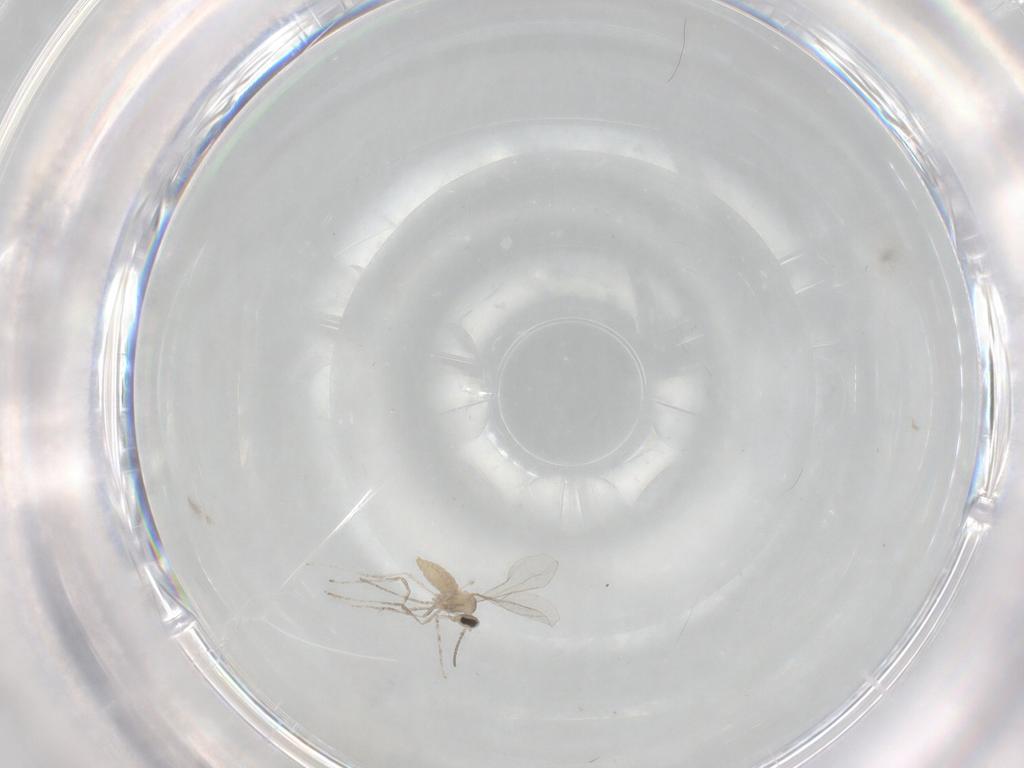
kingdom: Animalia
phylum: Arthropoda
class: Insecta
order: Diptera
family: Cecidomyiidae
